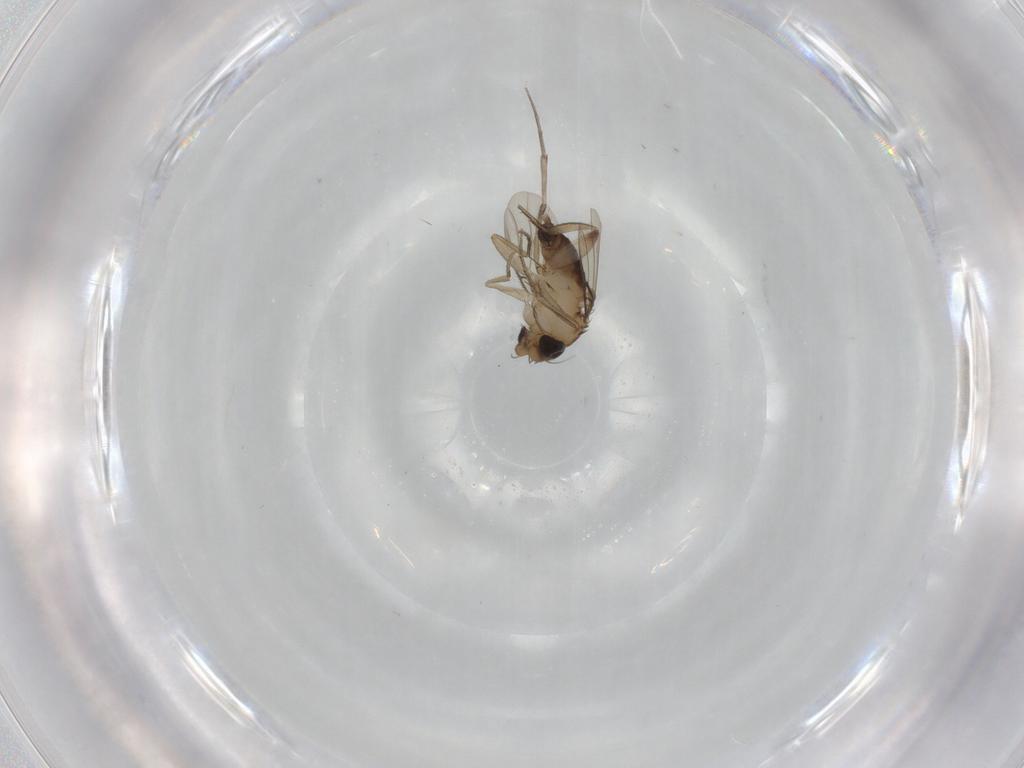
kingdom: Animalia
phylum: Arthropoda
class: Insecta
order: Diptera
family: Phoridae
